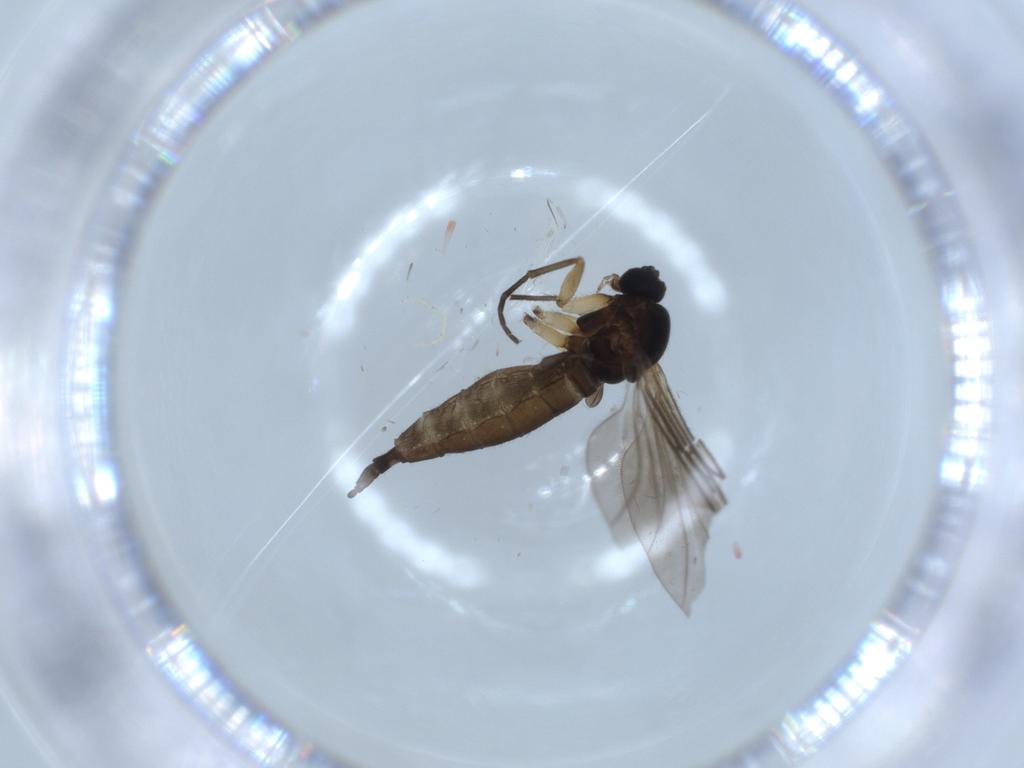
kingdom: Animalia
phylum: Arthropoda
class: Insecta
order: Diptera
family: Sciaridae
